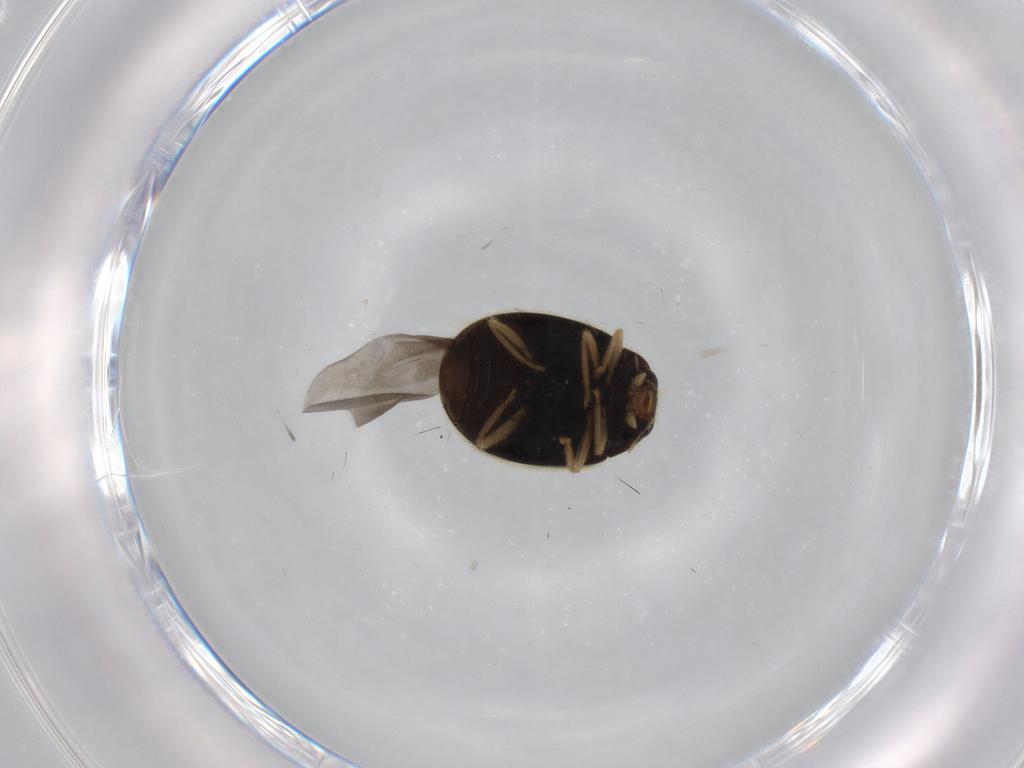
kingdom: Animalia
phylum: Arthropoda
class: Insecta
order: Coleoptera
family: Coccinellidae
